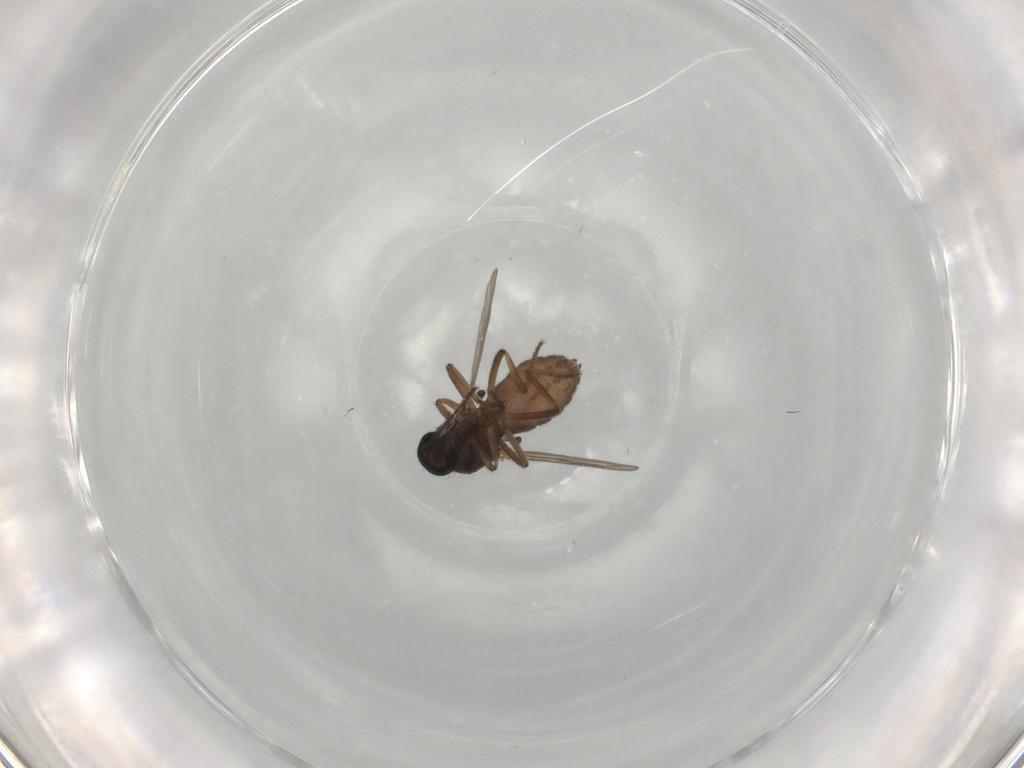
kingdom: Animalia
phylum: Arthropoda
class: Insecta
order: Diptera
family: Ceratopogonidae
